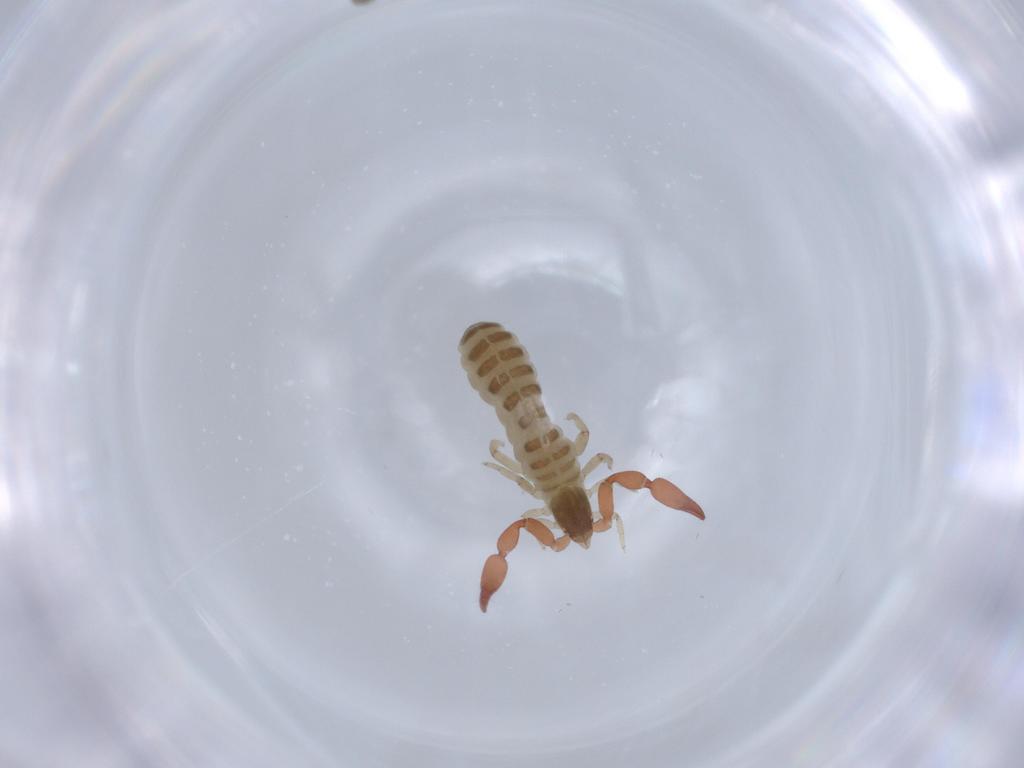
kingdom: Animalia
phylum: Arthropoda
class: Arachnida
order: Pseudoscorpiones
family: Garypinidae
